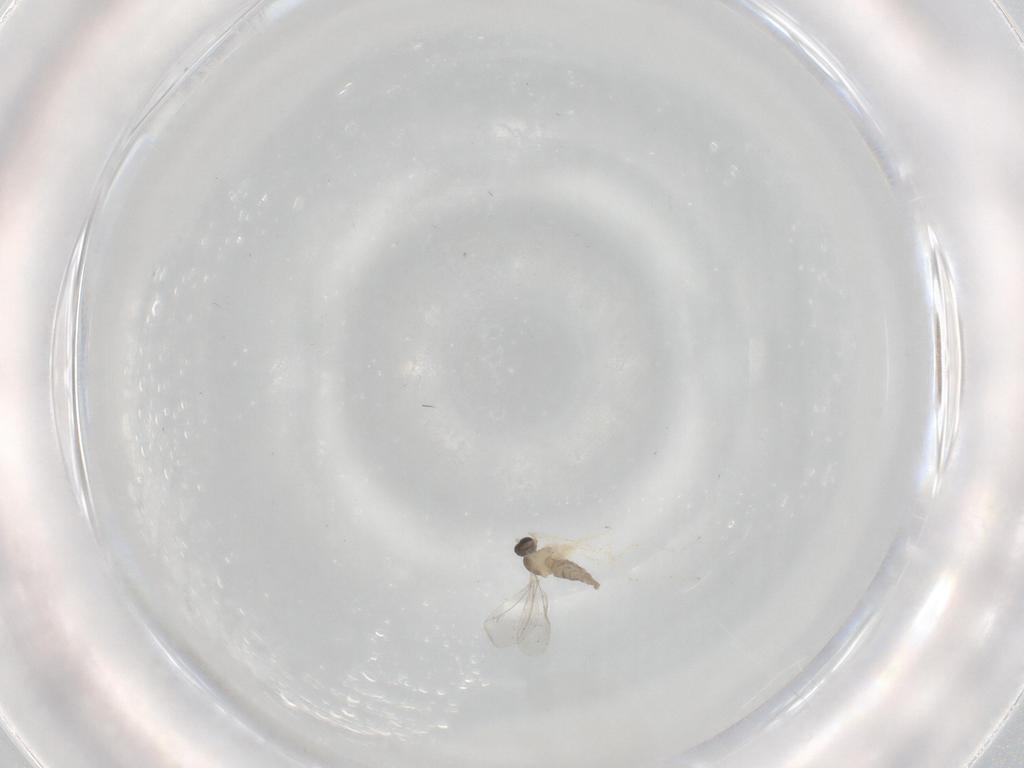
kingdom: Animalia
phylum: Arthropoda
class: Insecta
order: Diptera
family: Cecidomyiidae
